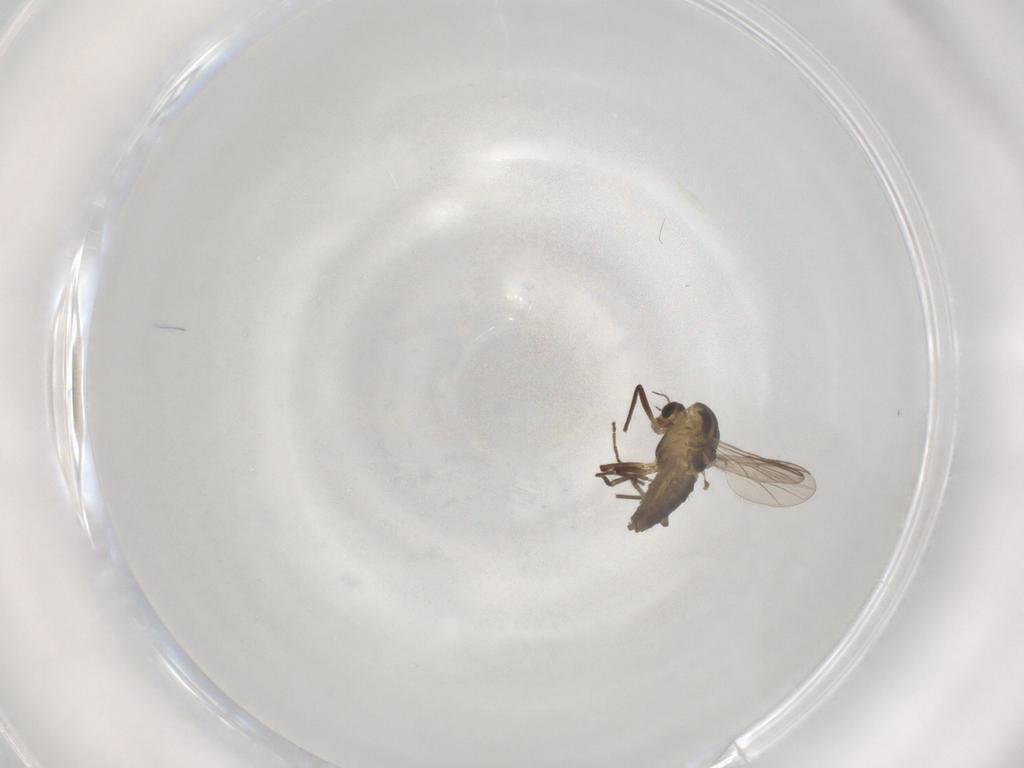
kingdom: Animalia
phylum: Arthropoda
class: Insecta
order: Diptera
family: Chironomidae
